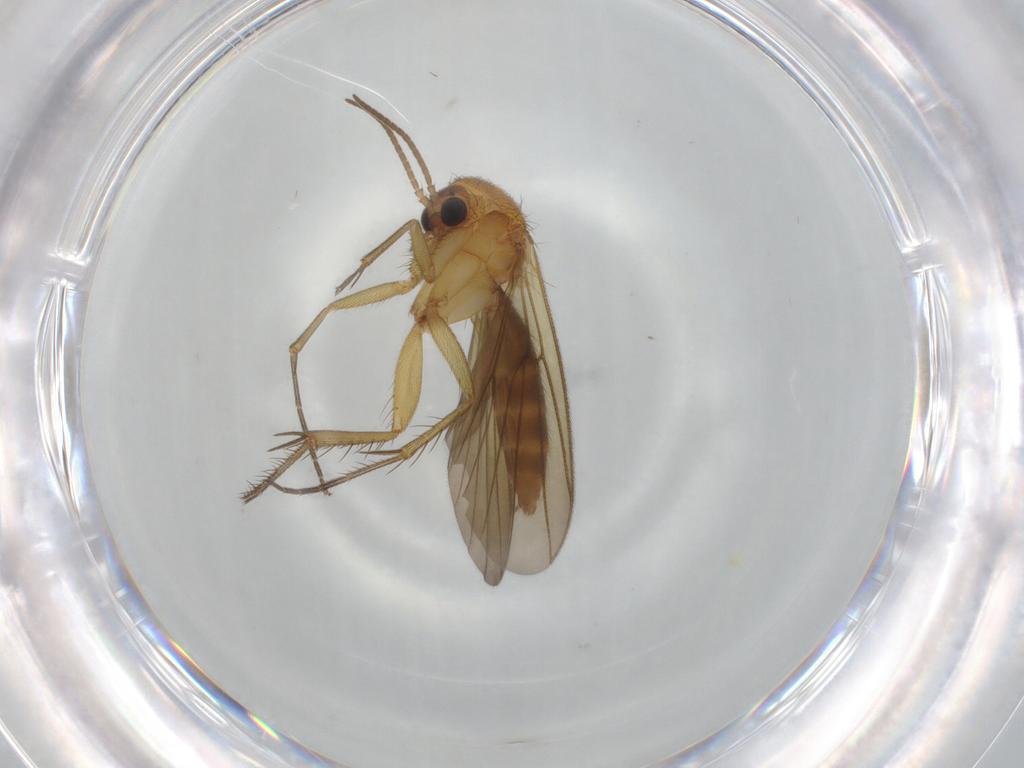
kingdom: Animalia
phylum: Arthropoda
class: Insecta
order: Diptera
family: Mycetophilidae
